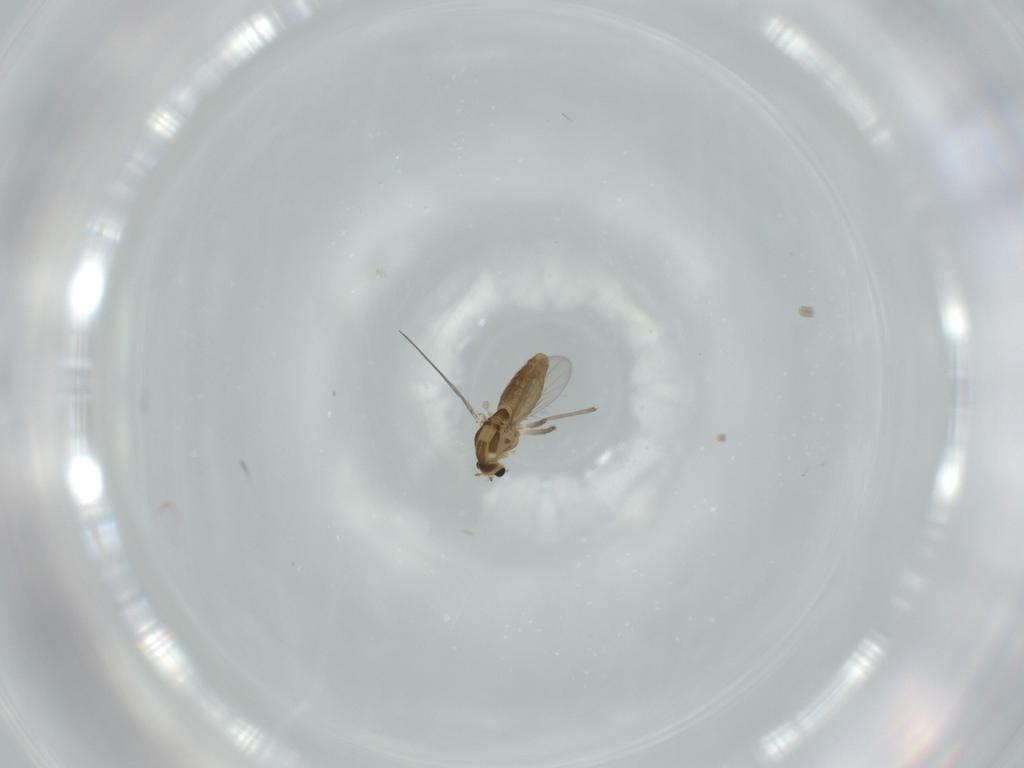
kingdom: Animalia
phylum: Arthropoda
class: Insecta
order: Diptera
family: Chironomidae
